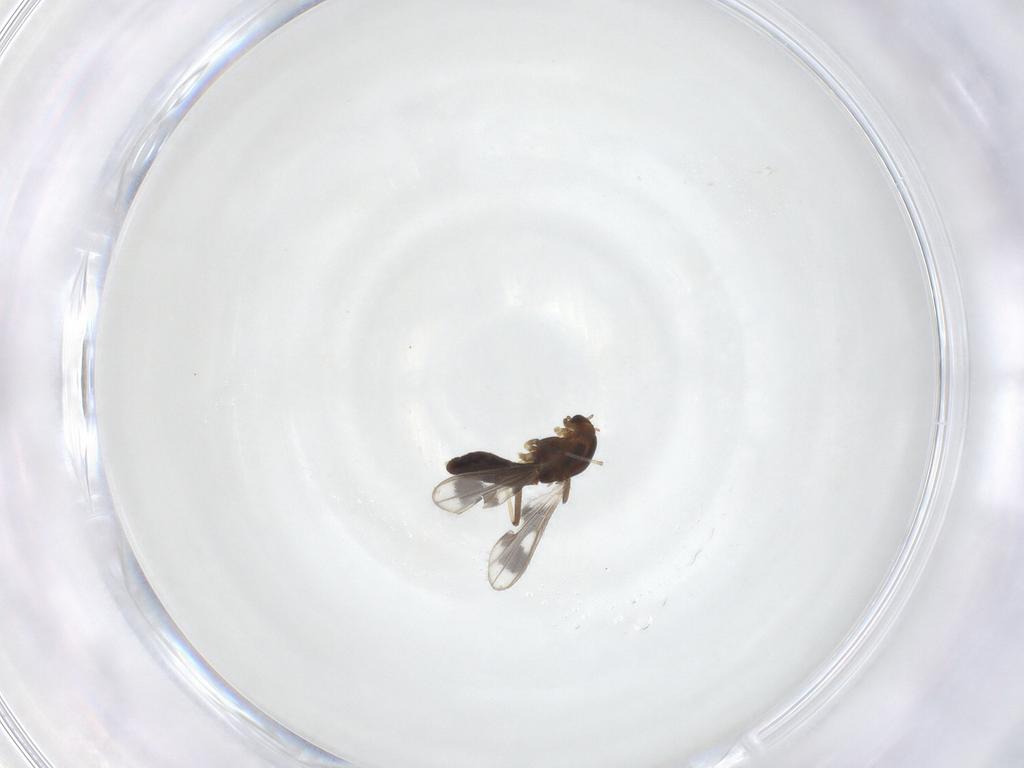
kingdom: Animalia
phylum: Arthropoda
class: Insecta
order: Diptera
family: Chironomidae
